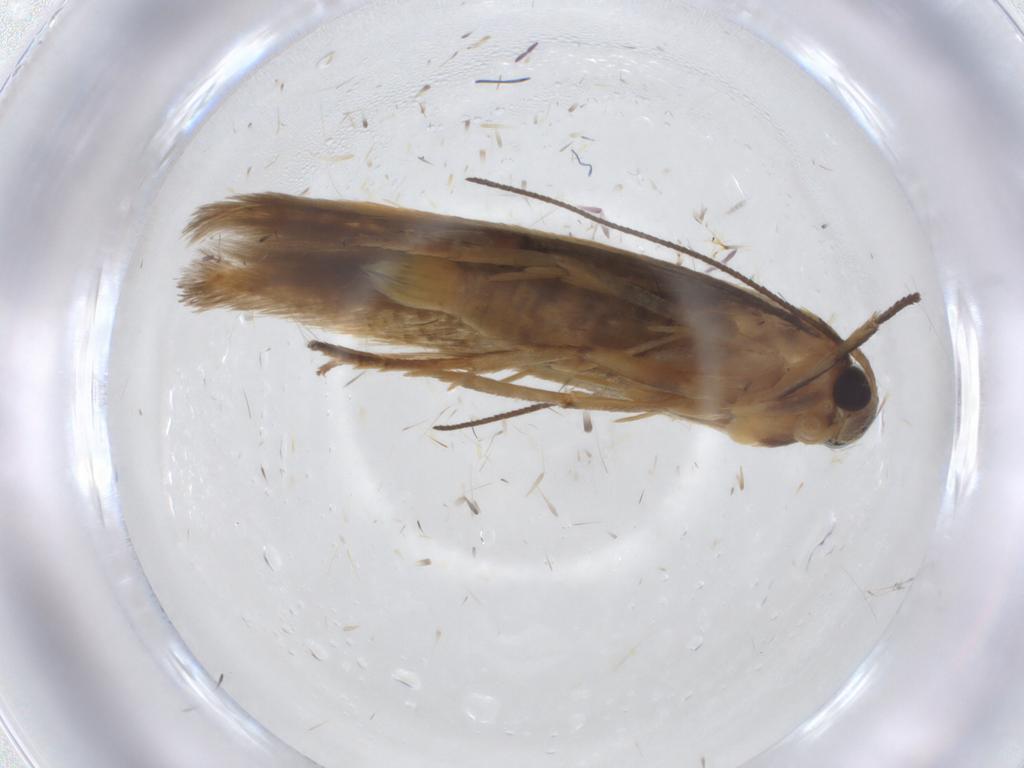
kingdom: Animalia
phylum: Arthropoda
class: Insecta
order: Lepidoptera
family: Stathmopodidae
